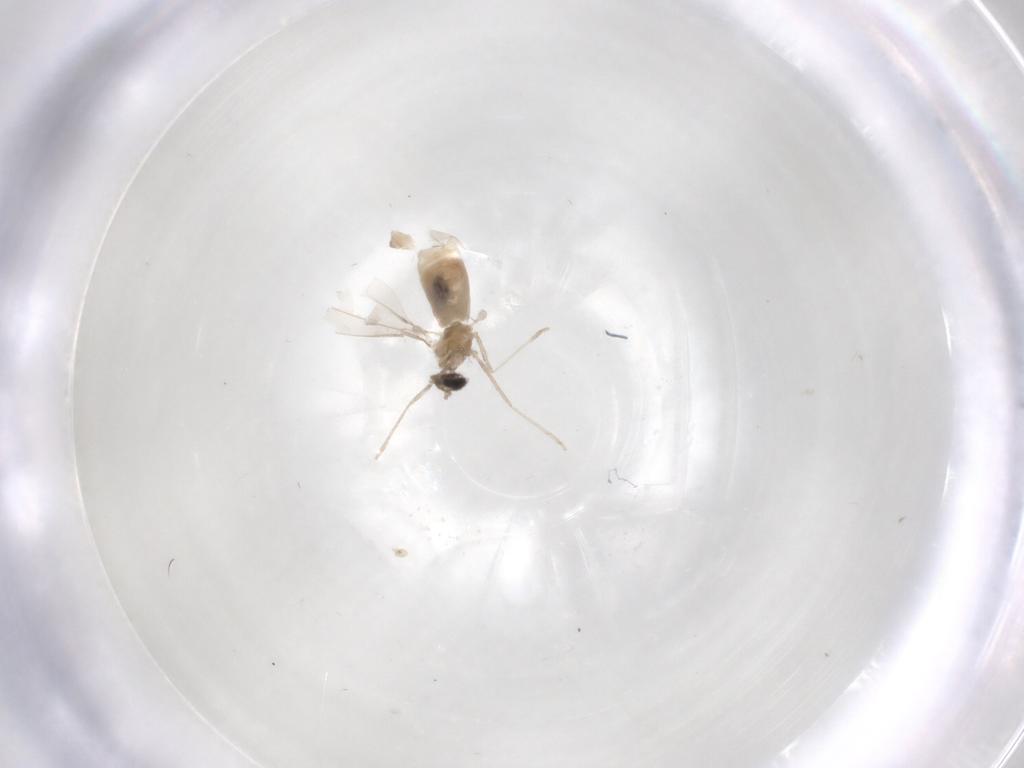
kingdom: Animalia
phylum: Arthropoda
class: Insecta
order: Diptera
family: Cecidomyiidae
